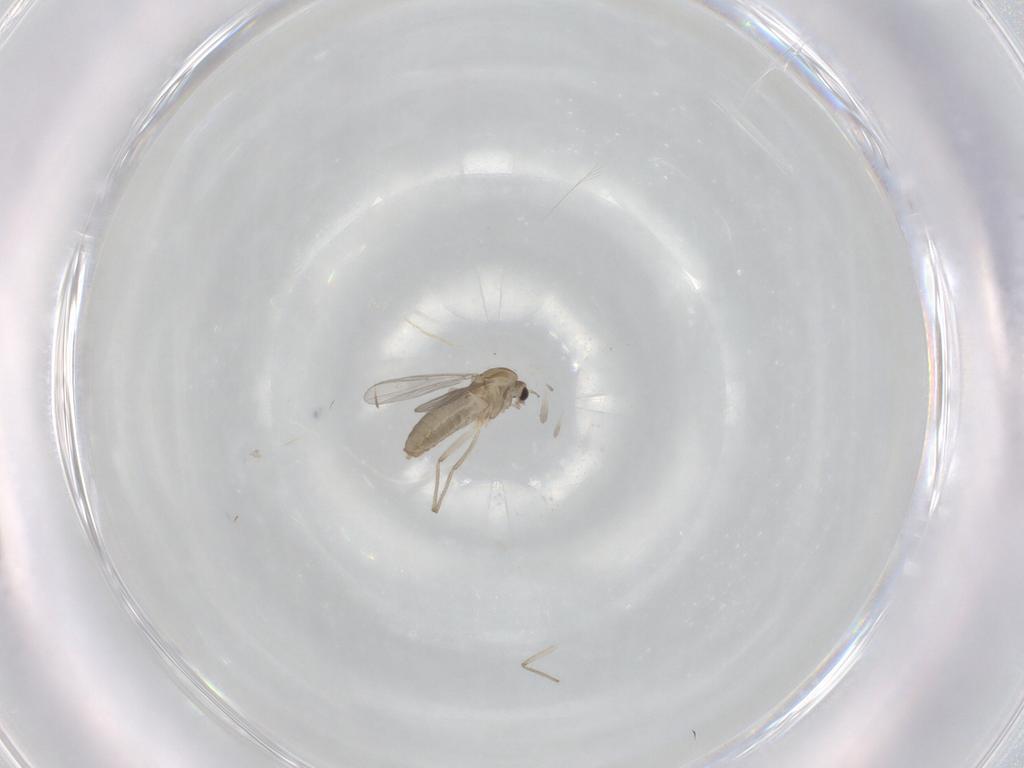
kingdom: Animalia
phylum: Arthropoda
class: Insecta
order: Diptera
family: Chironomidae
